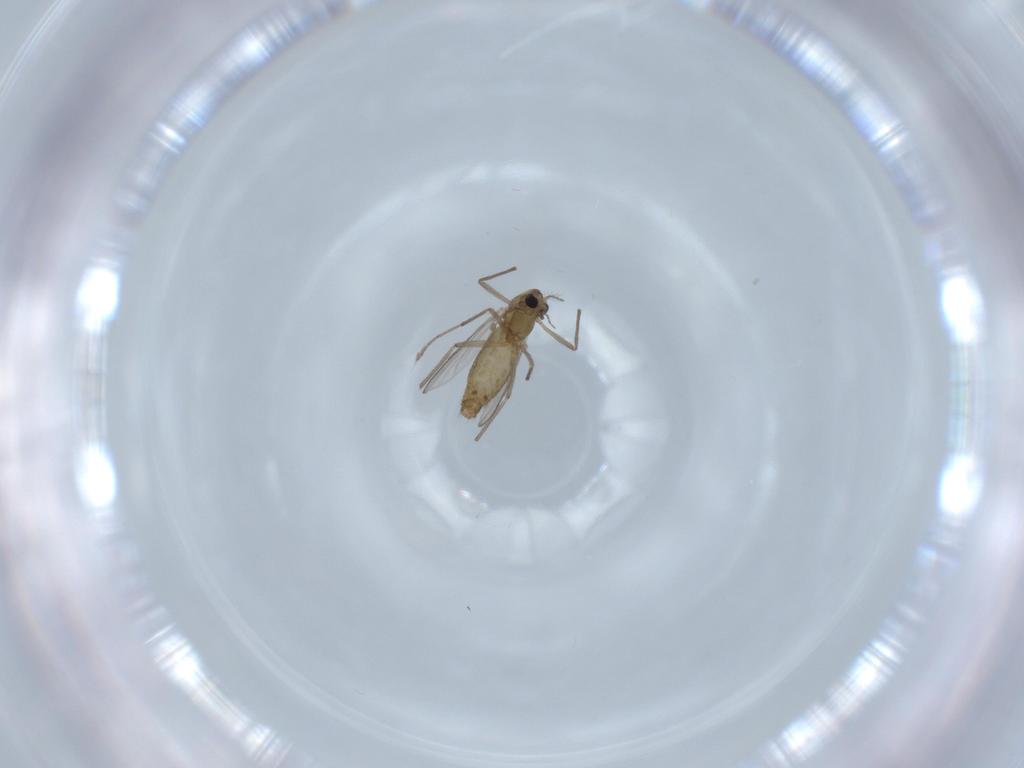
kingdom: Animalia
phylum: Arthropoda
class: Insecta
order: Diptera
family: Chironomidae
